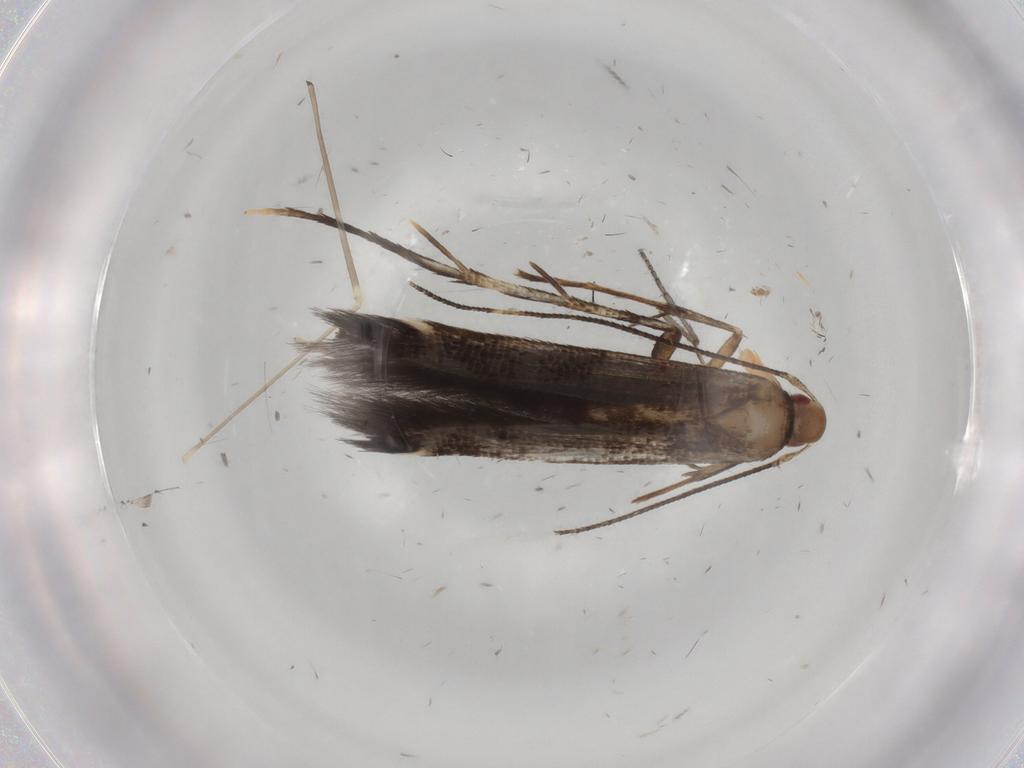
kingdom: Animalia
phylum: Arthropoda
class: Insecta
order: Lepidoptera
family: Cosmopterigidae
